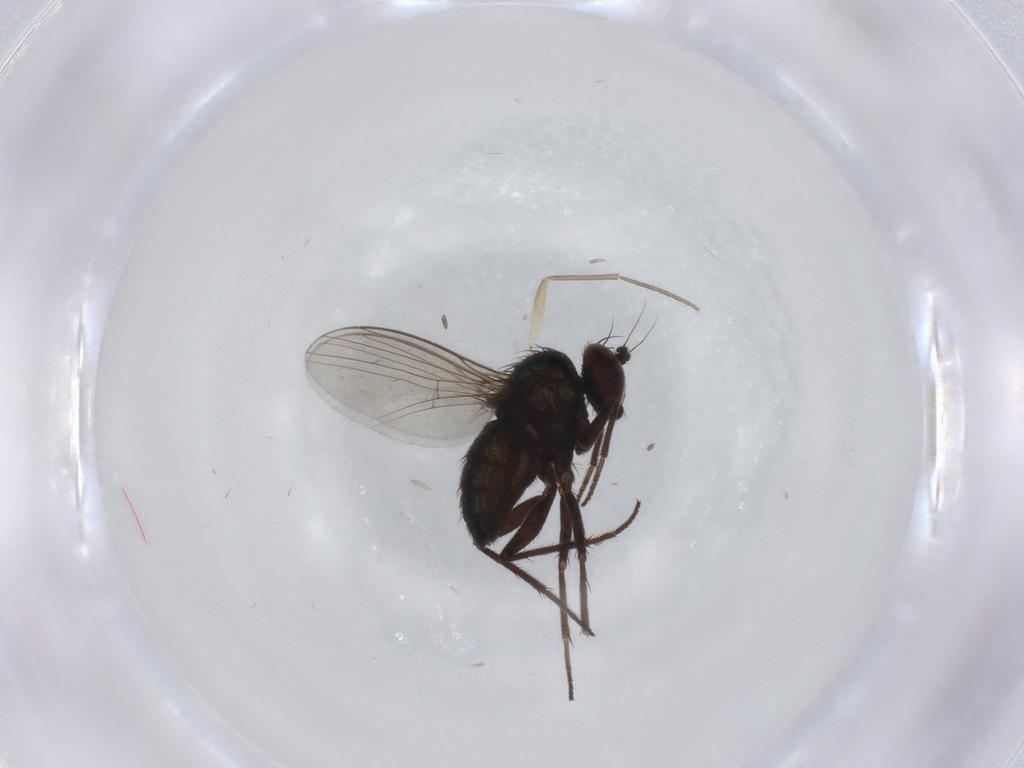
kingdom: Animalia
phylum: Arthropoda
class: Insecta
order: Diptera
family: Dolichopodidae
